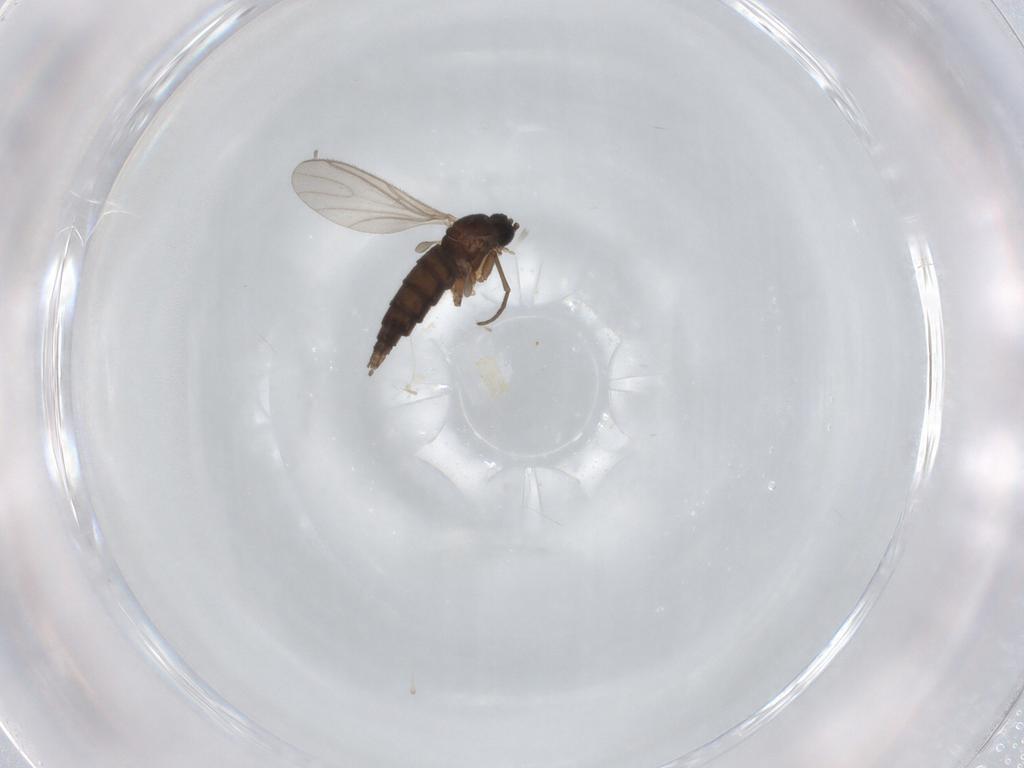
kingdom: Animalia
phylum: Arthropoda
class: Insecta
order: Diptera
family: Sciaridae
